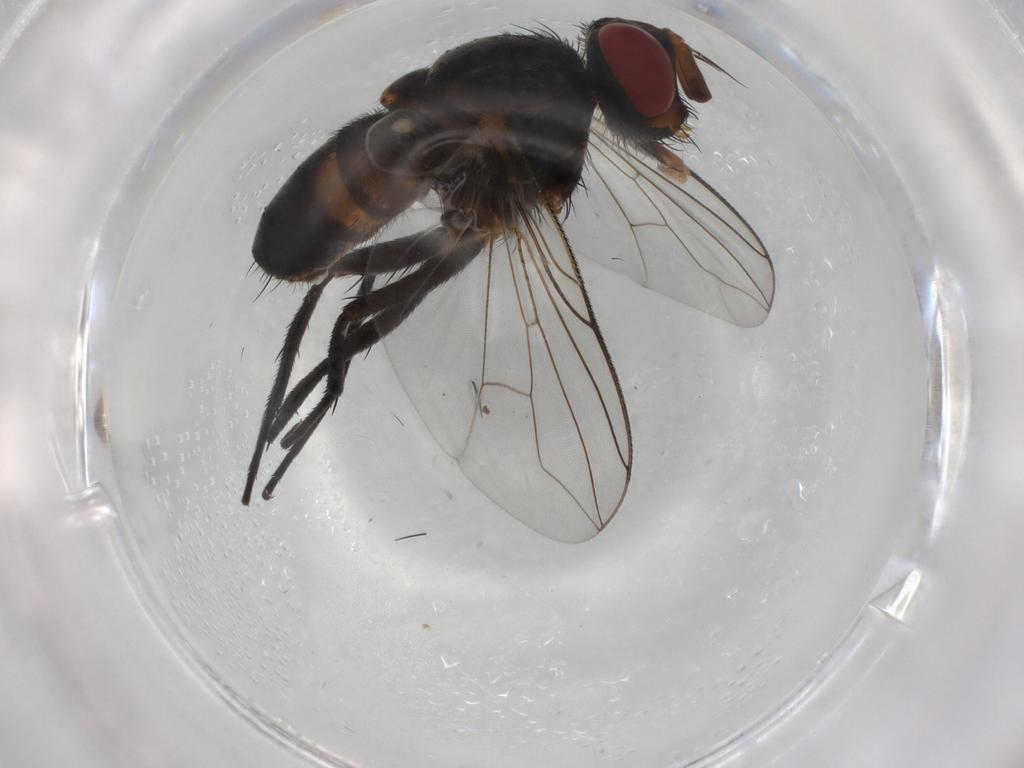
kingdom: Animalia
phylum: Arthropoda
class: Insecta
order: Diptera
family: Tachinidae
